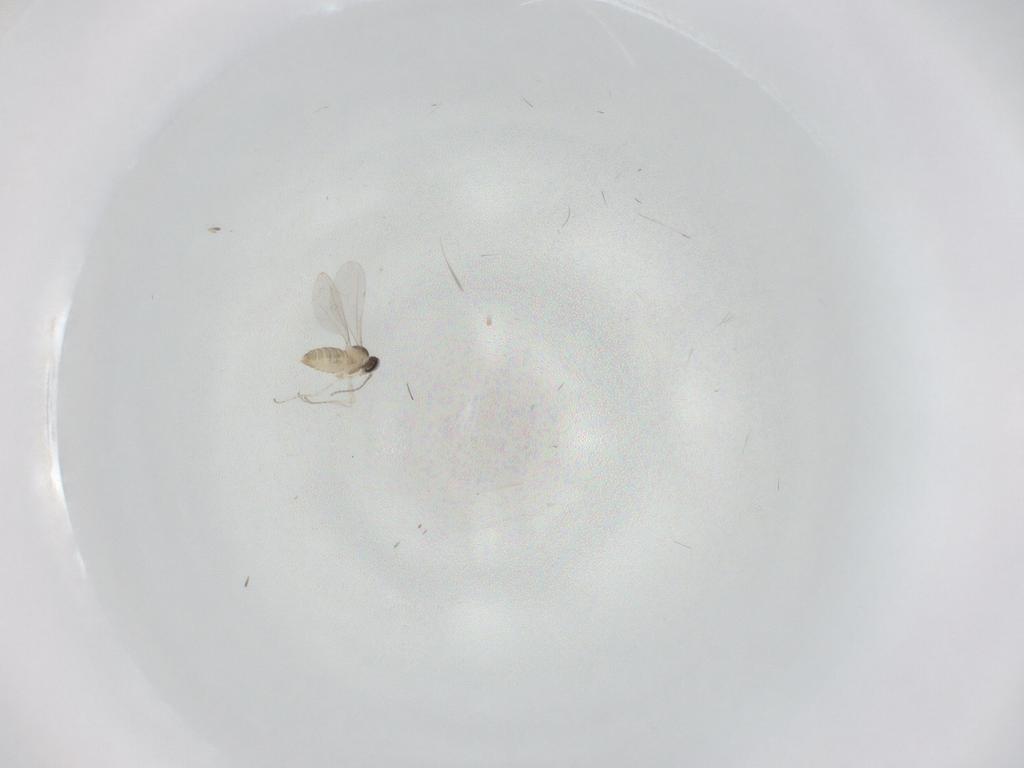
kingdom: Animalia
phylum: Arthropoda
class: Insecta
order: Diptera
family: Cecidomyiidae
